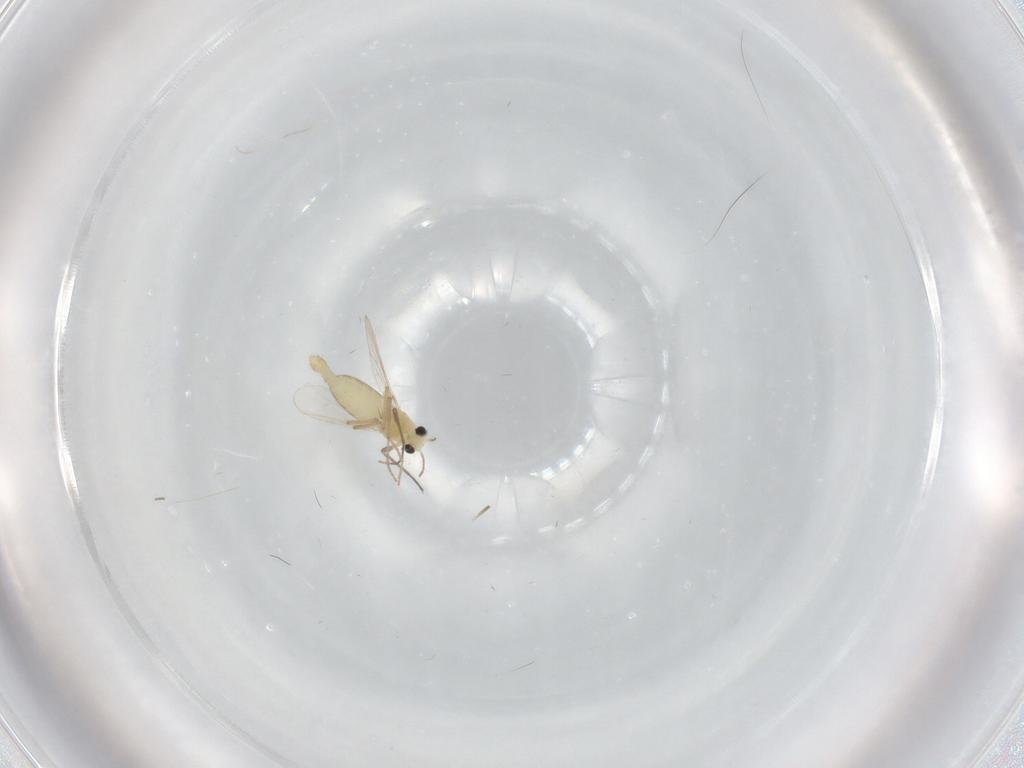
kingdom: Animalia
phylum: Arthropoda
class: Insecta
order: Diptera
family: Chironomidae
